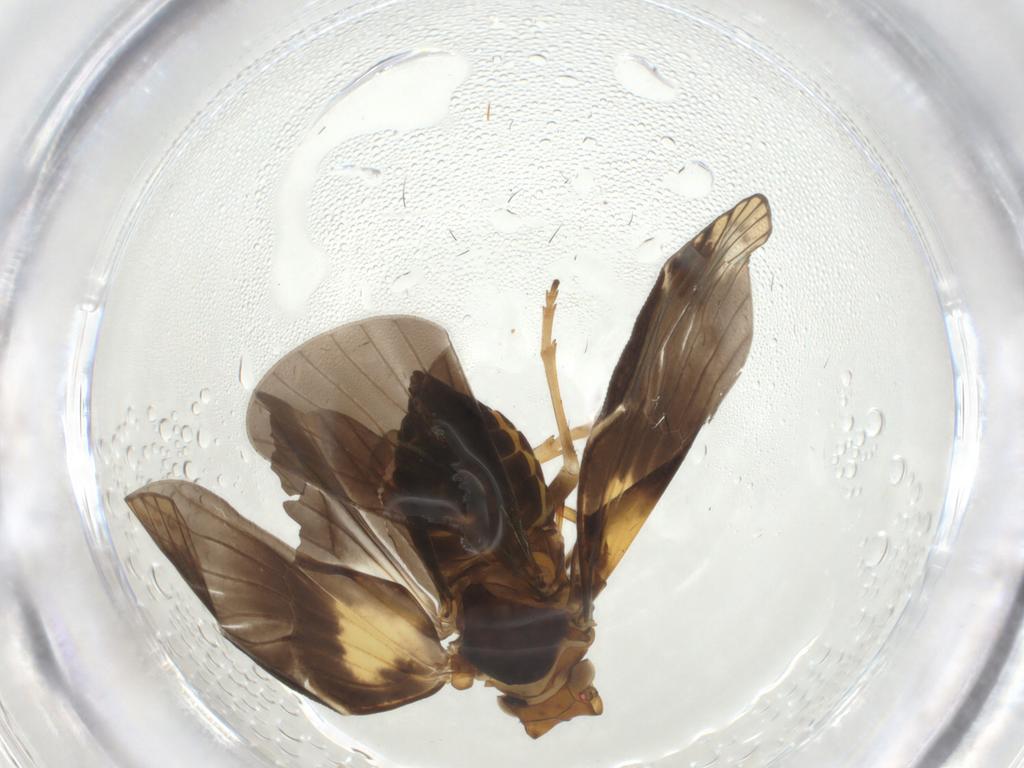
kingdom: Animalia
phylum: Arthropoda
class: Insecta
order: Hemiptera
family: Cixiidae
